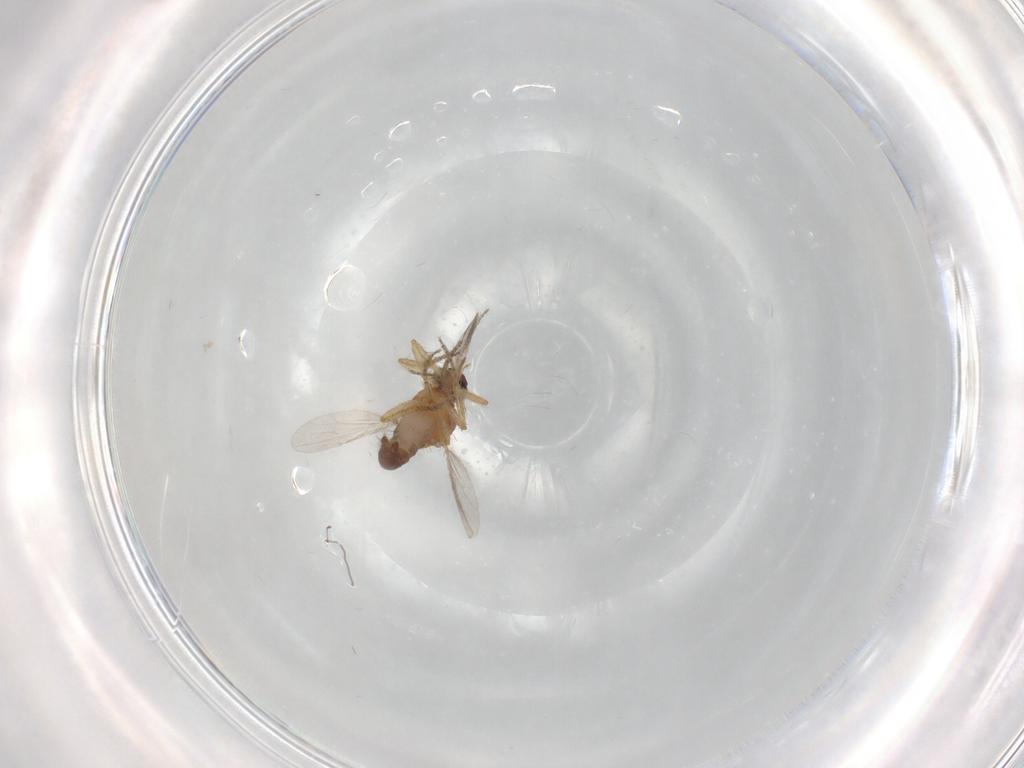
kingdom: Animalia
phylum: Arthropoda
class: Insecta
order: Diptera
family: Ceratopogonidae
